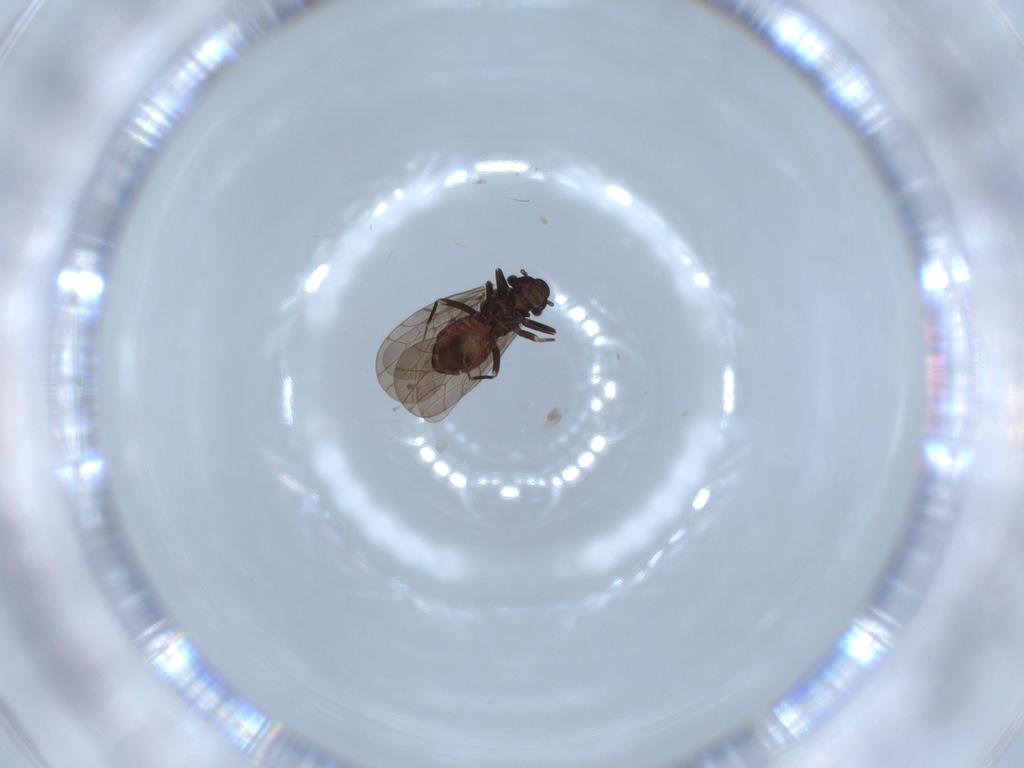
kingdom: Animalia
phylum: Arthropoda
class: Insecta
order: Psocodea
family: Lepidopsocidae
